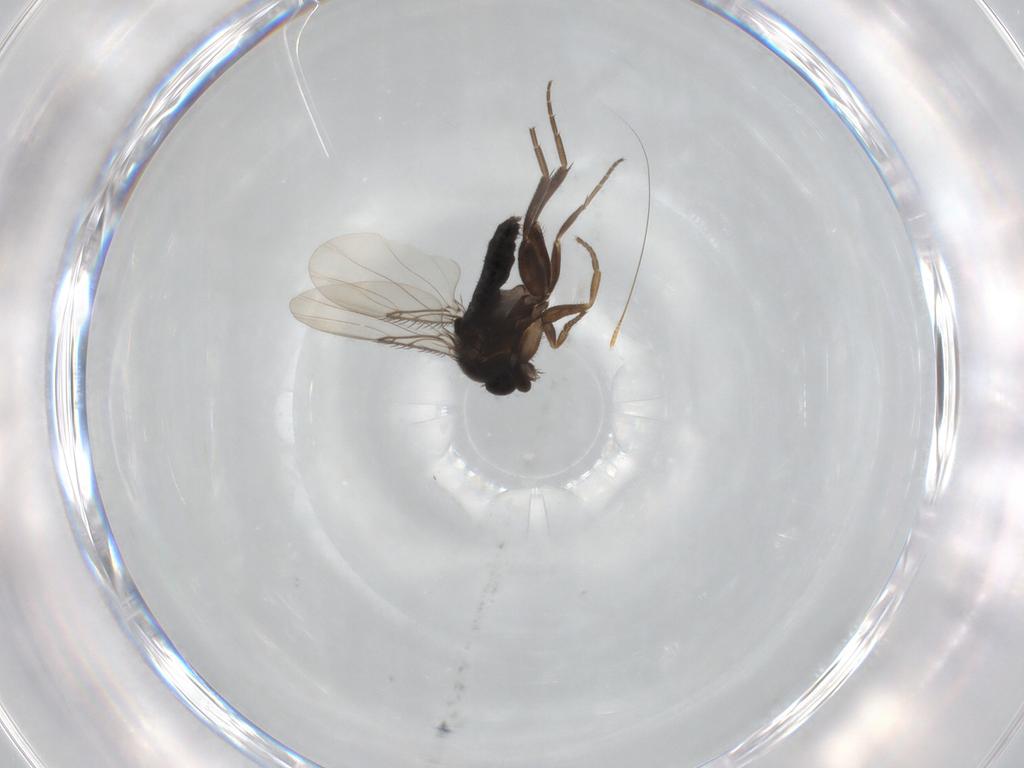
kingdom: Animalia
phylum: Arthropoda
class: Insecta
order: Diptera
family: Phoridae
